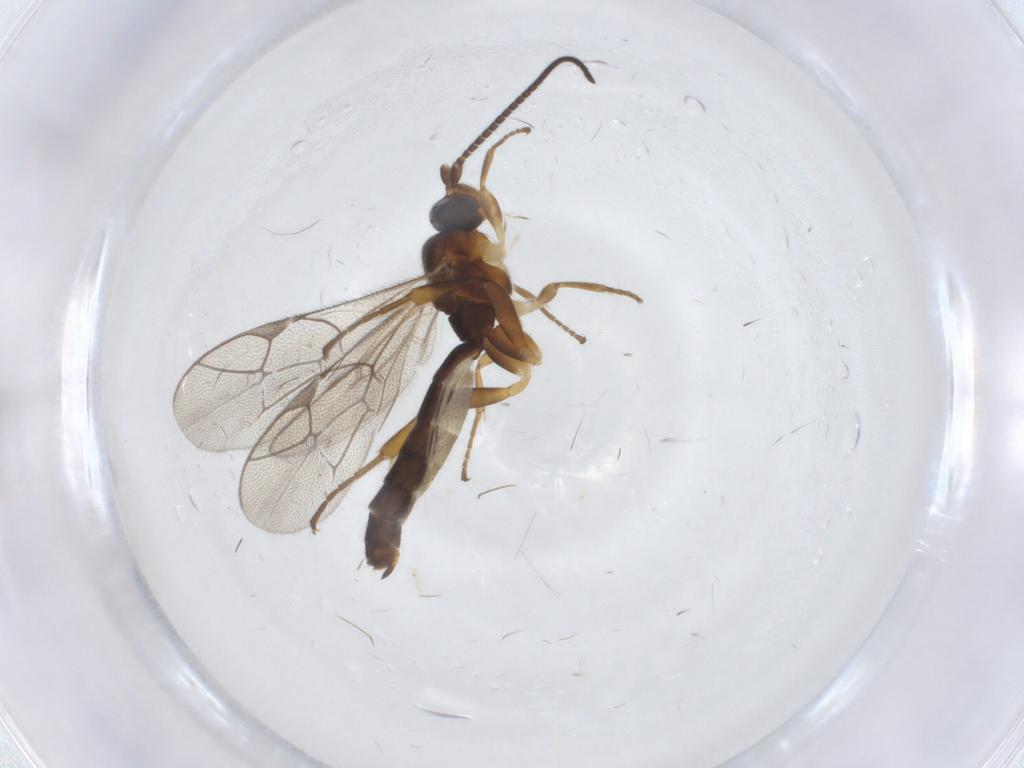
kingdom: Animalia
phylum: Arthropoda
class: Insecta
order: Hymenoptera
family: Ichneumonidae
